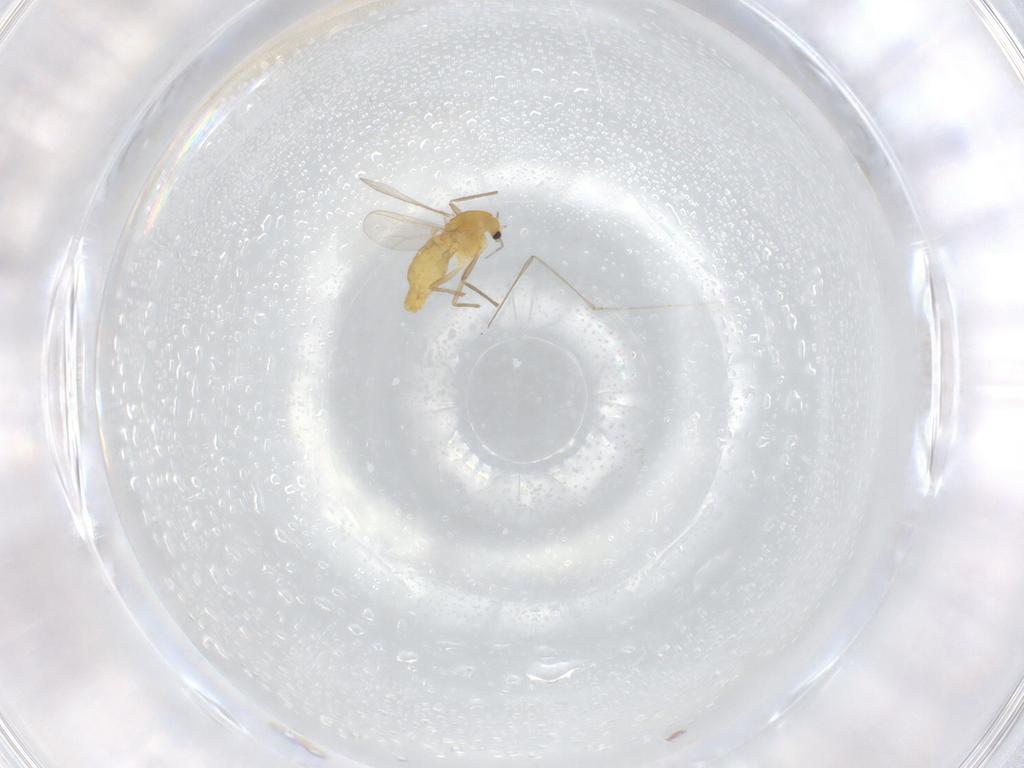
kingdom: Animalia
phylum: Arthropoda
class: Insecta
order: Diptera
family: Chironomidae
